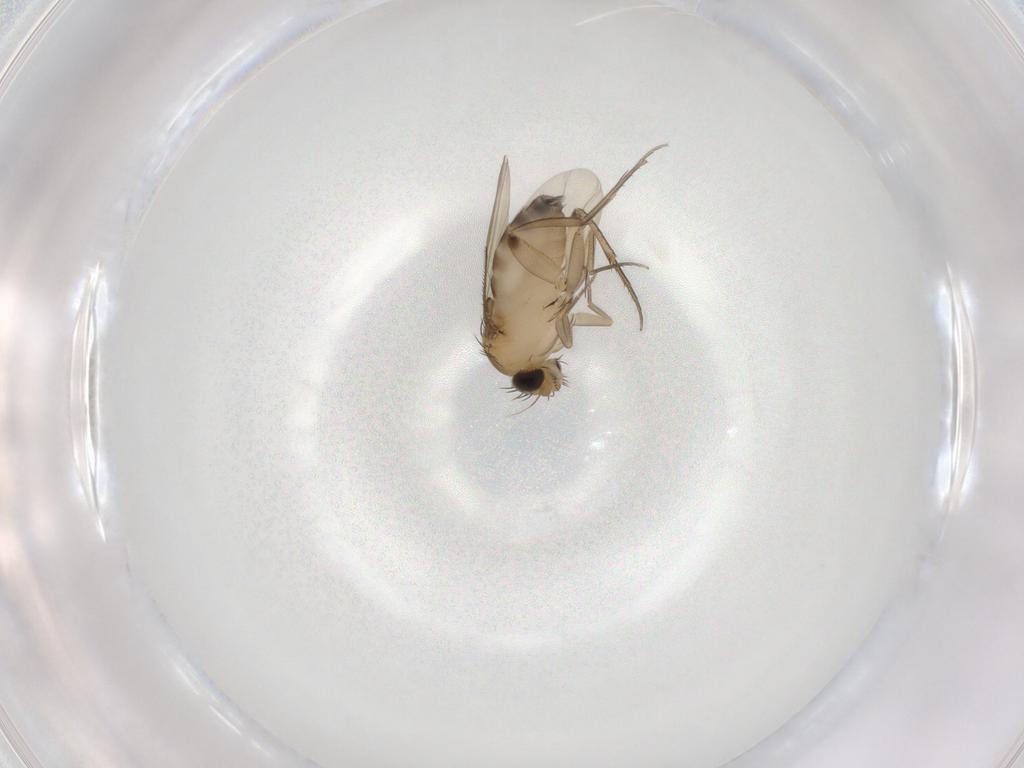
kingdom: Animalia
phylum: Arthropoda
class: Insecta
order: Diptera
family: Phoridae
